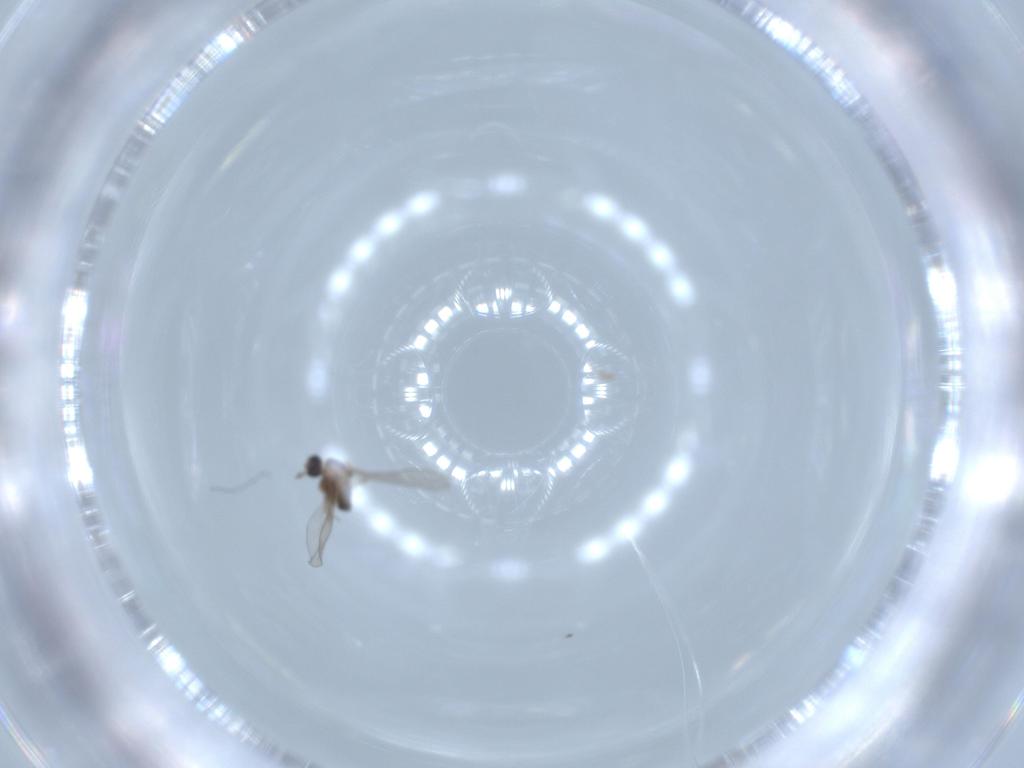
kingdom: Animalia
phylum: Arthropoda
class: Insecta
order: Diptera
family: Cecidomyiidae
